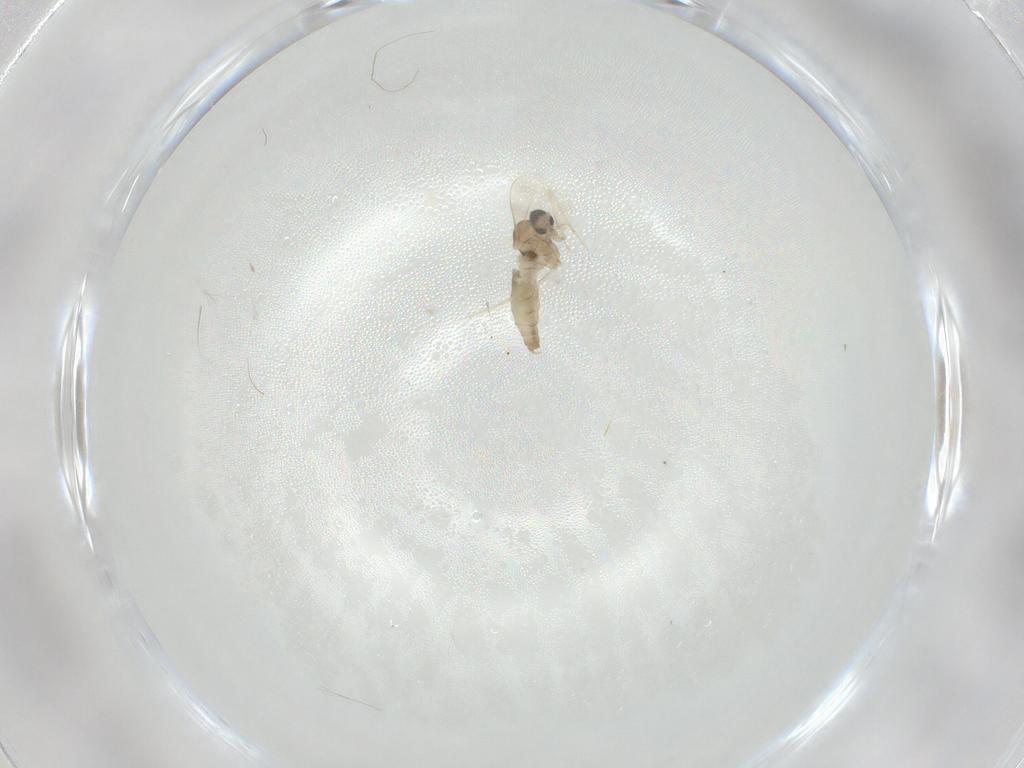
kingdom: Animalia
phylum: Arthropoda
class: Insecta
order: Diptera
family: Cecidomyiidae
